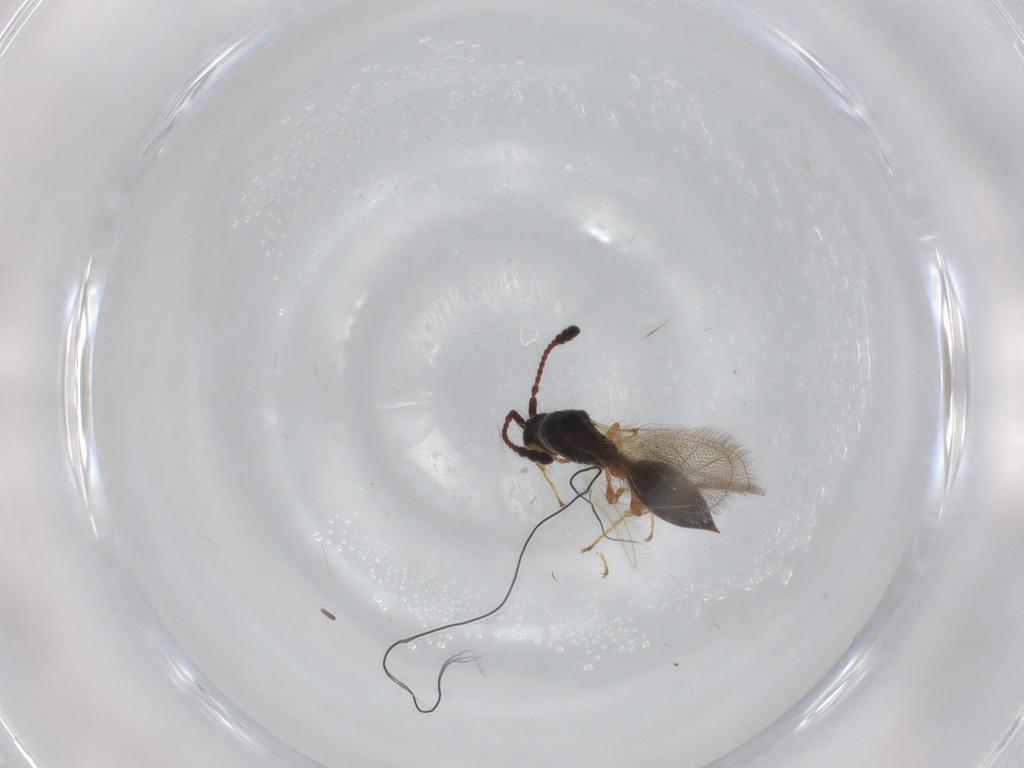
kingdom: Animalia
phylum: Arthropoda
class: Insecta
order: Hymenoptera
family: Diapriidae
